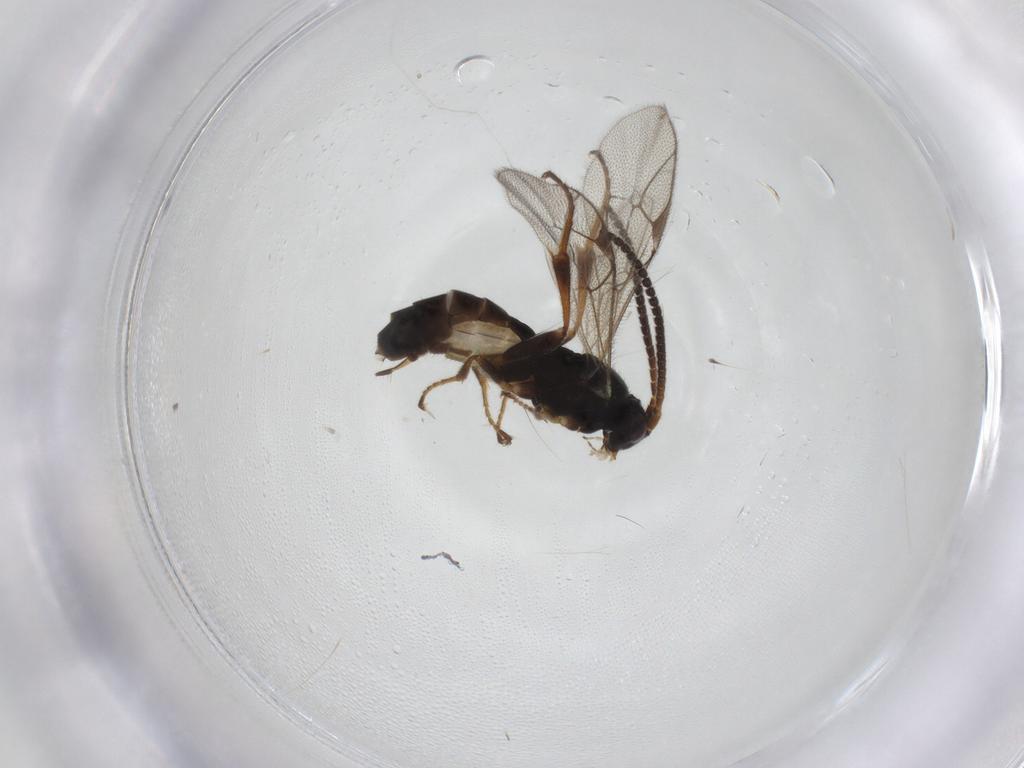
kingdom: Animalia
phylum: Arthropoda
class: Insecta
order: Hymenoptera
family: Ichneumonidae
